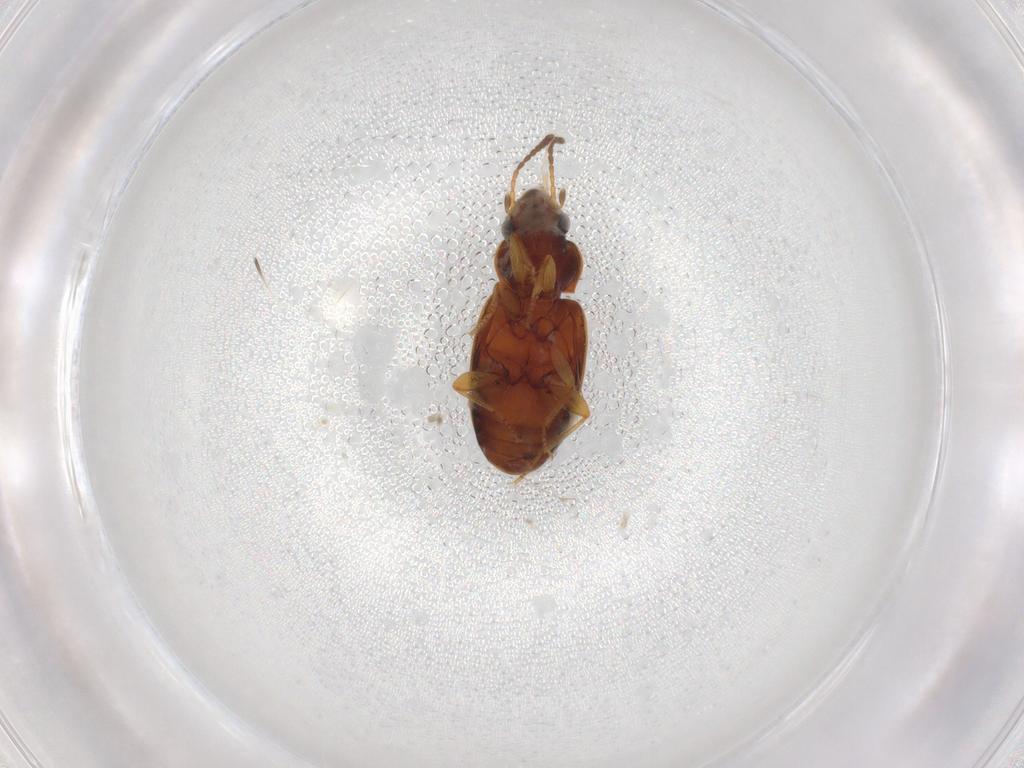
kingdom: Animalia
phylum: Arthropoda
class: Insecta
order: Coleoptera
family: Carabidae
